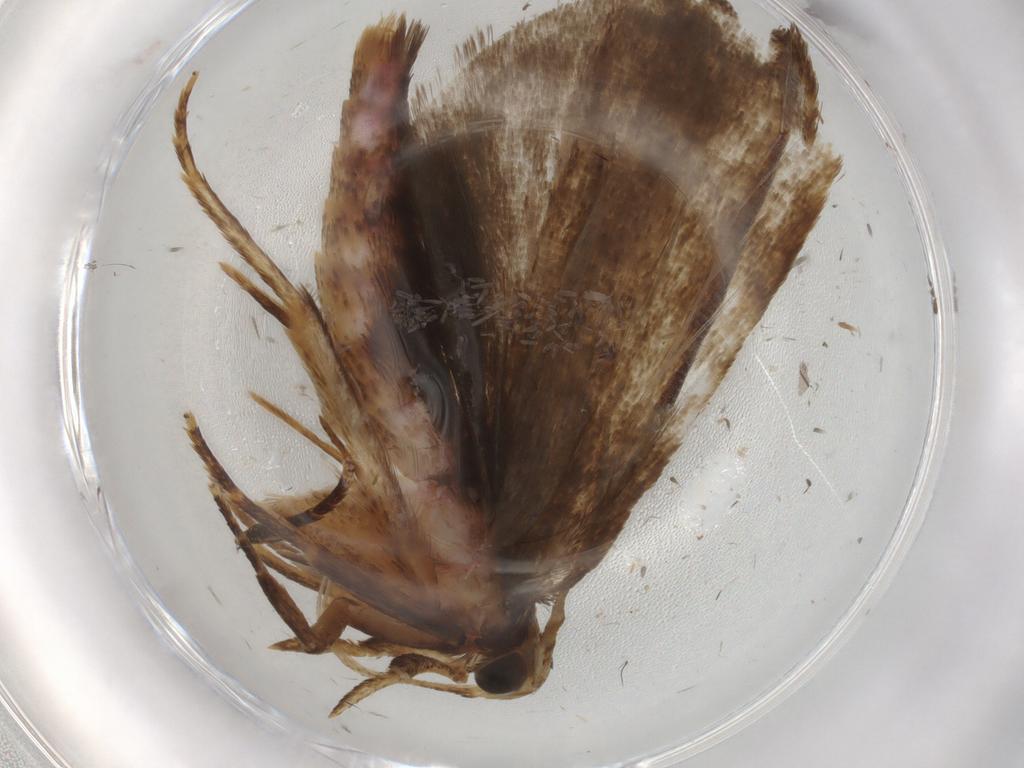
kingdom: Animalia
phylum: Arthropoda
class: Insecta
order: Lepidoptera
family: Autostichidae
